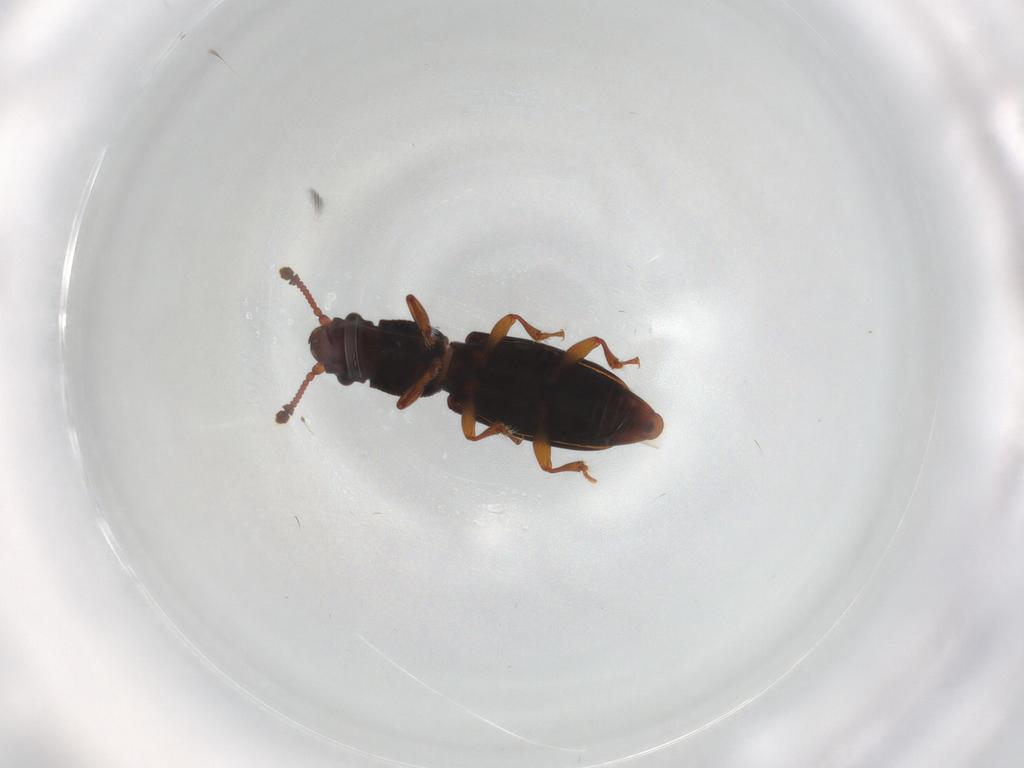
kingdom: Animalia
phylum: Arthropoda
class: Insecta
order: Coleoptera
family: Monotomidae
